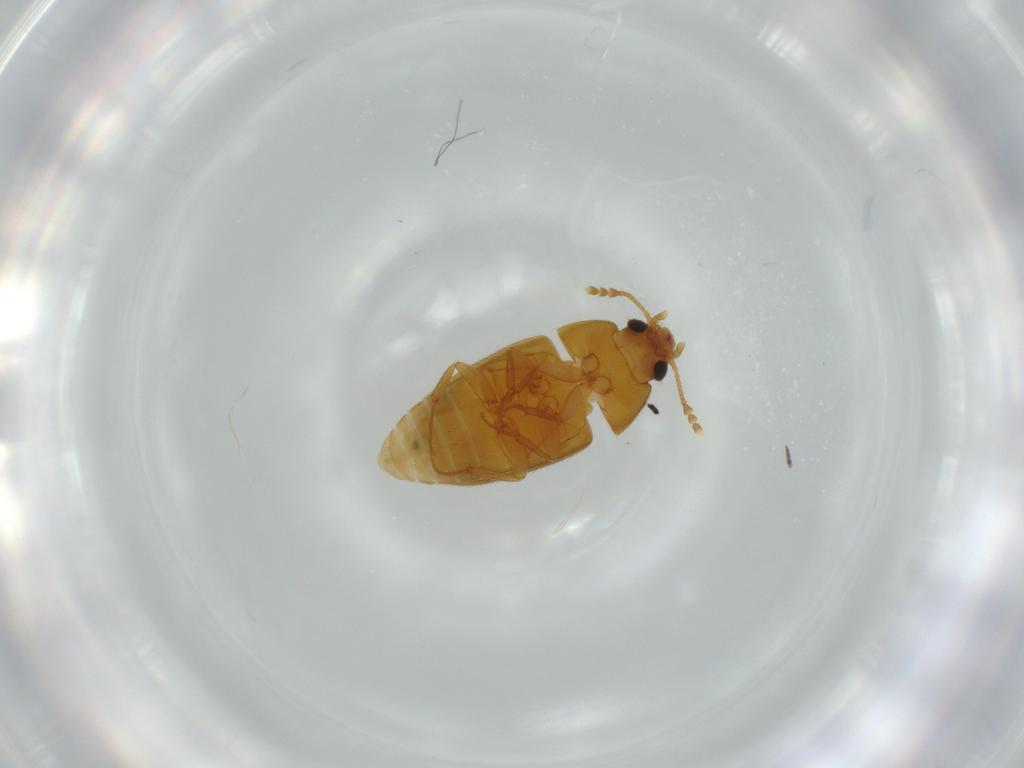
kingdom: Animalia
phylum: Arthropoda
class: Insecta
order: Coleoptera
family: Mycetophagidae
